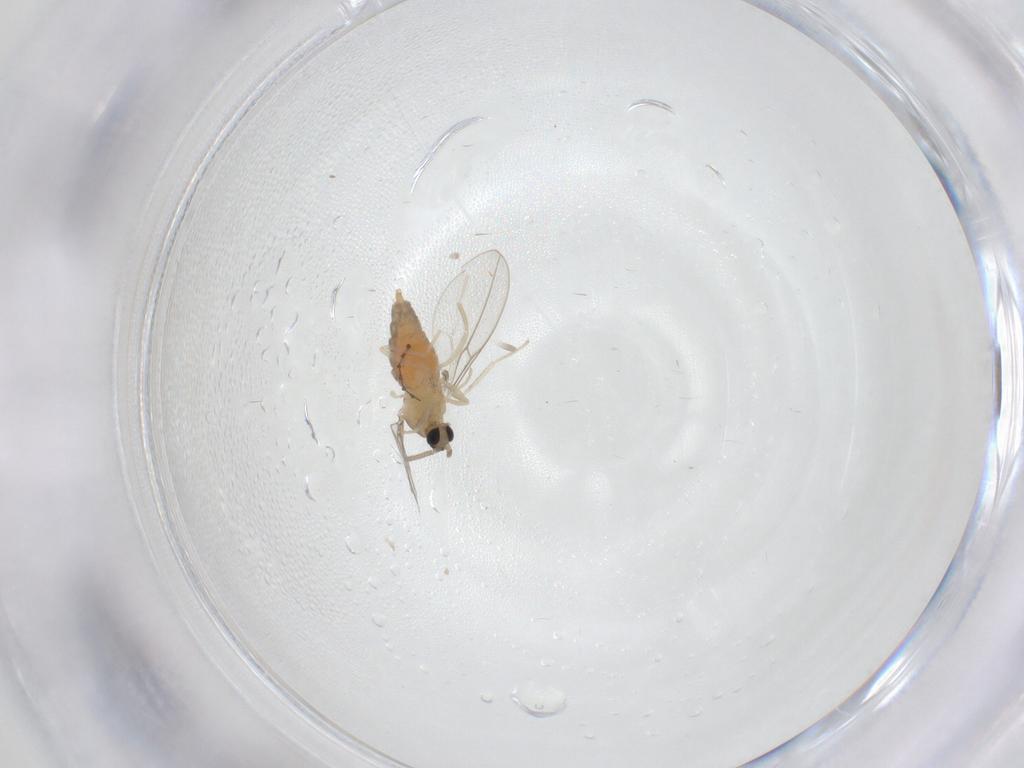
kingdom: Animalia
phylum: Arthropoda
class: Insecta
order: Diptera
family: Cecidomyiidae
